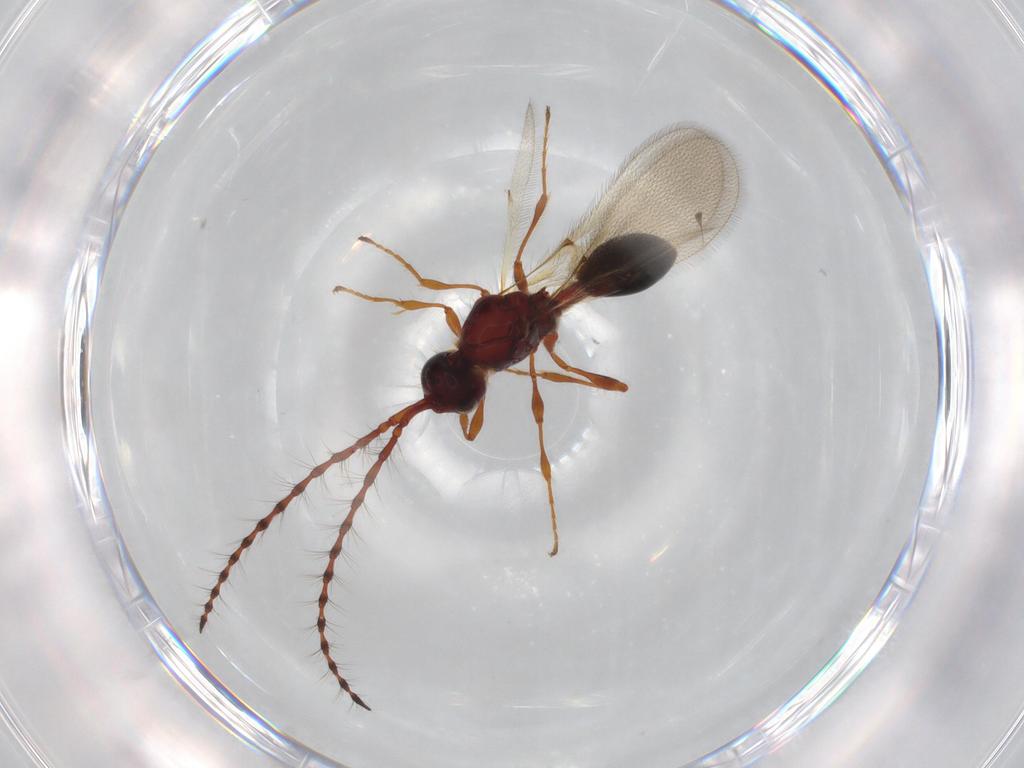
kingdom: Animalia
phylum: Arthropoda
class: Insecta
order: Hymenoptera
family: Diapriidae
